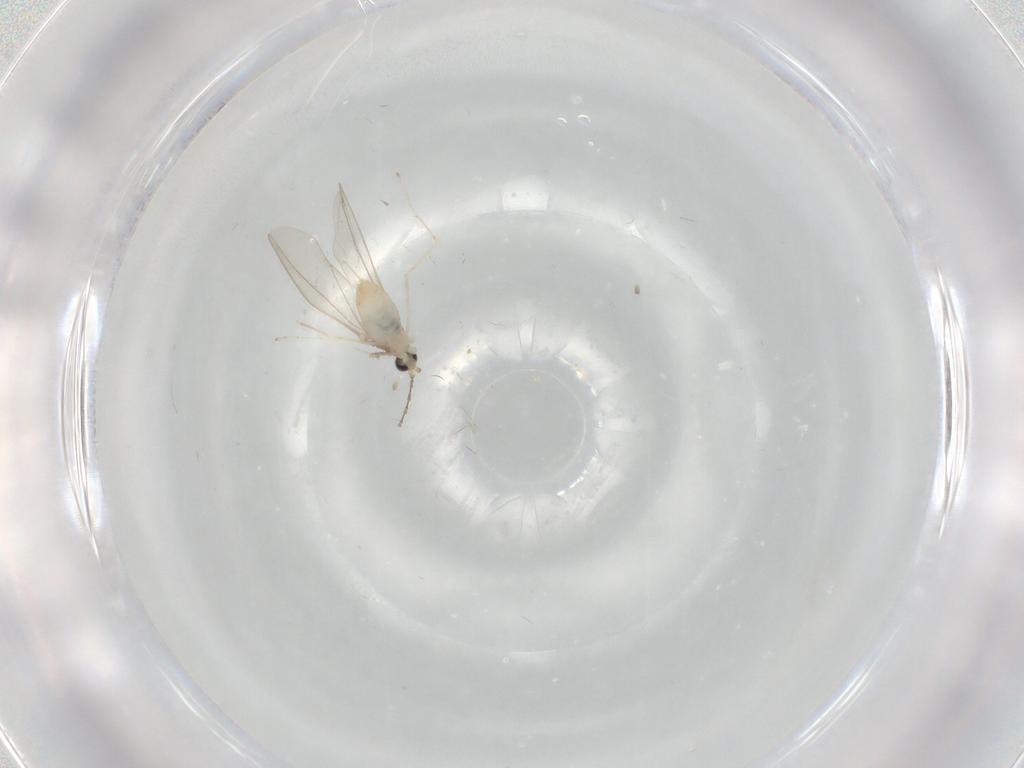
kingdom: Animalia
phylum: Arthropoda
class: Insecta
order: Diptera
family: Cecidomyiidae
